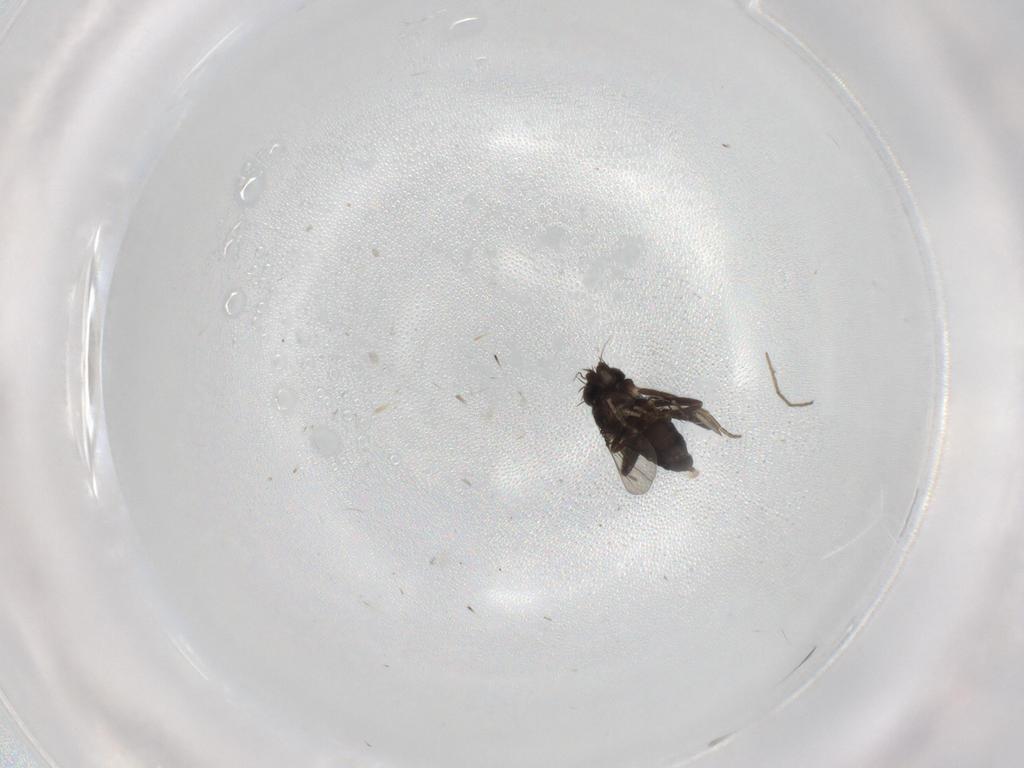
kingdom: Animalia
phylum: Arthropoda
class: Insecta
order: Diptera
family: Phoridae
